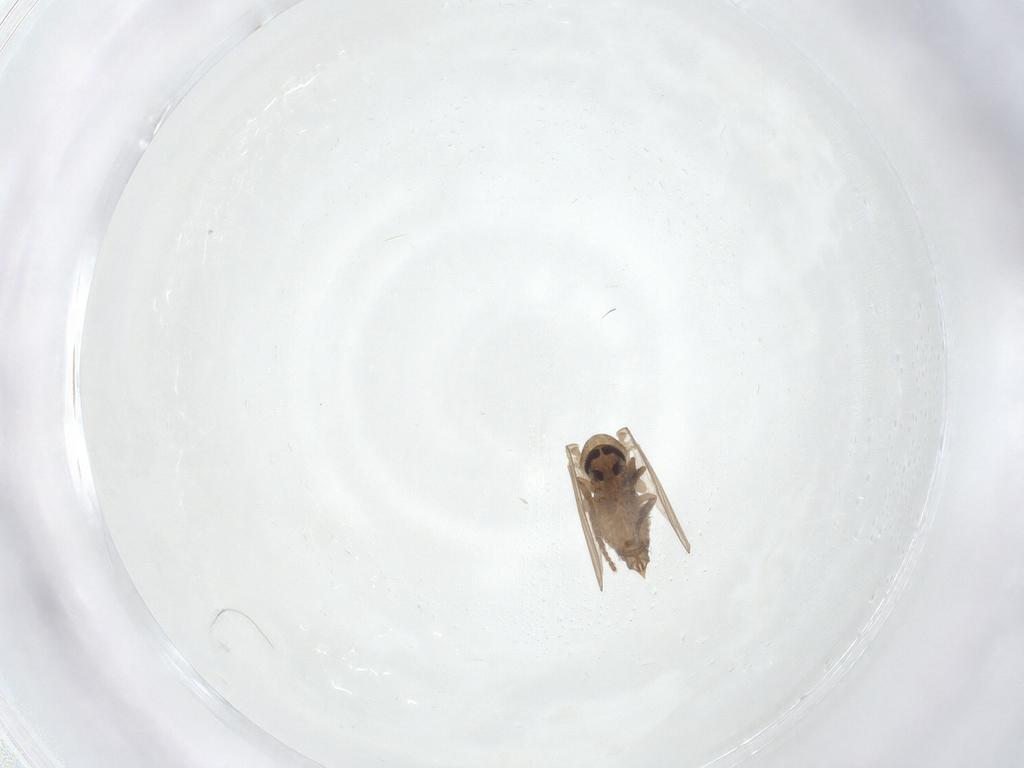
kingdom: Animalia
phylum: Arthropoda
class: Insecta
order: Diptera
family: Psychodidae
